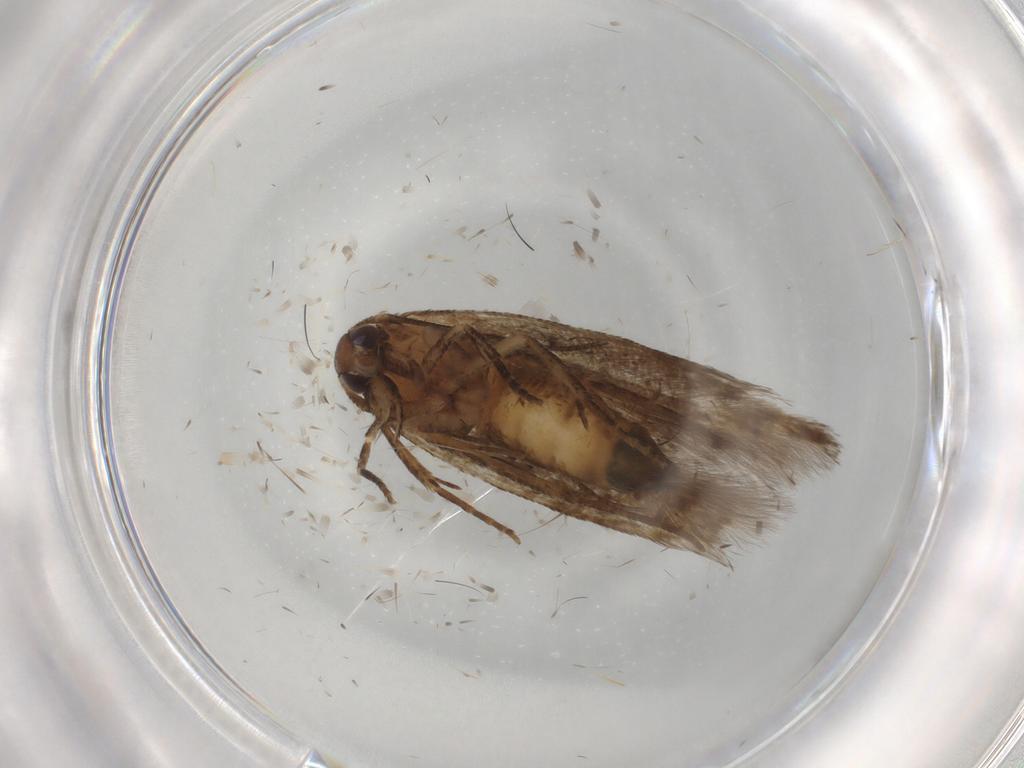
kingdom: Animalia
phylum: Arthropoda
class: Insecta
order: Lepidoptera
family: Cosmopterigidae
